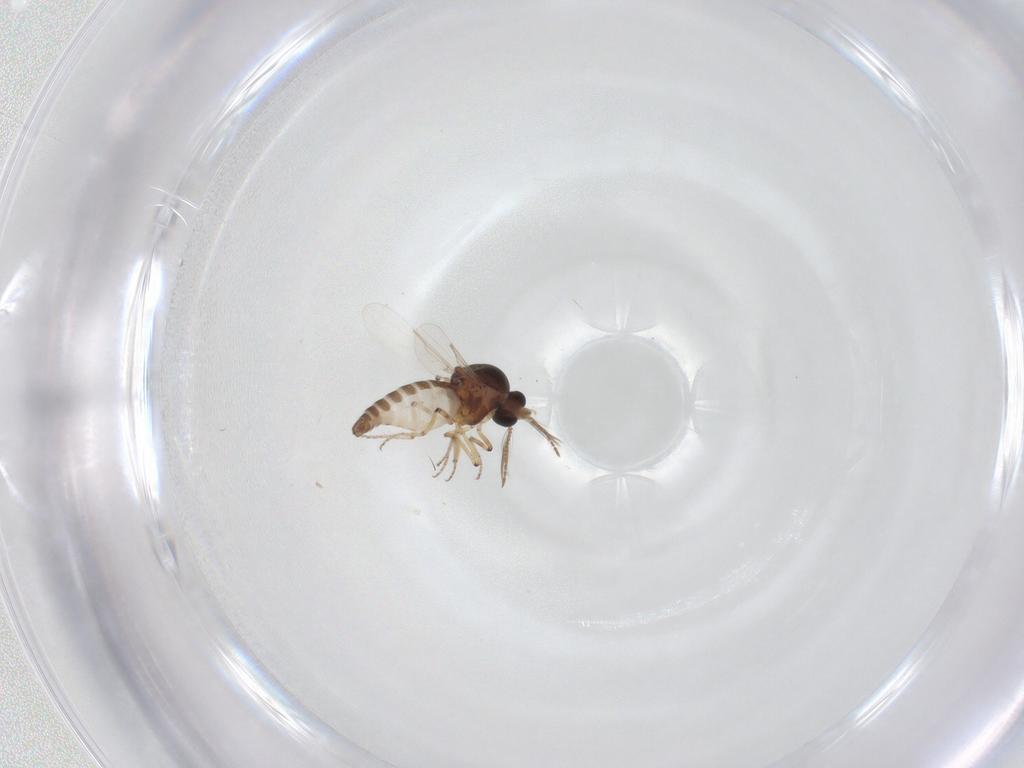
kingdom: Animalia
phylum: Arthropoda
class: Insecta
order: Diptera
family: Ceratopogonidae
